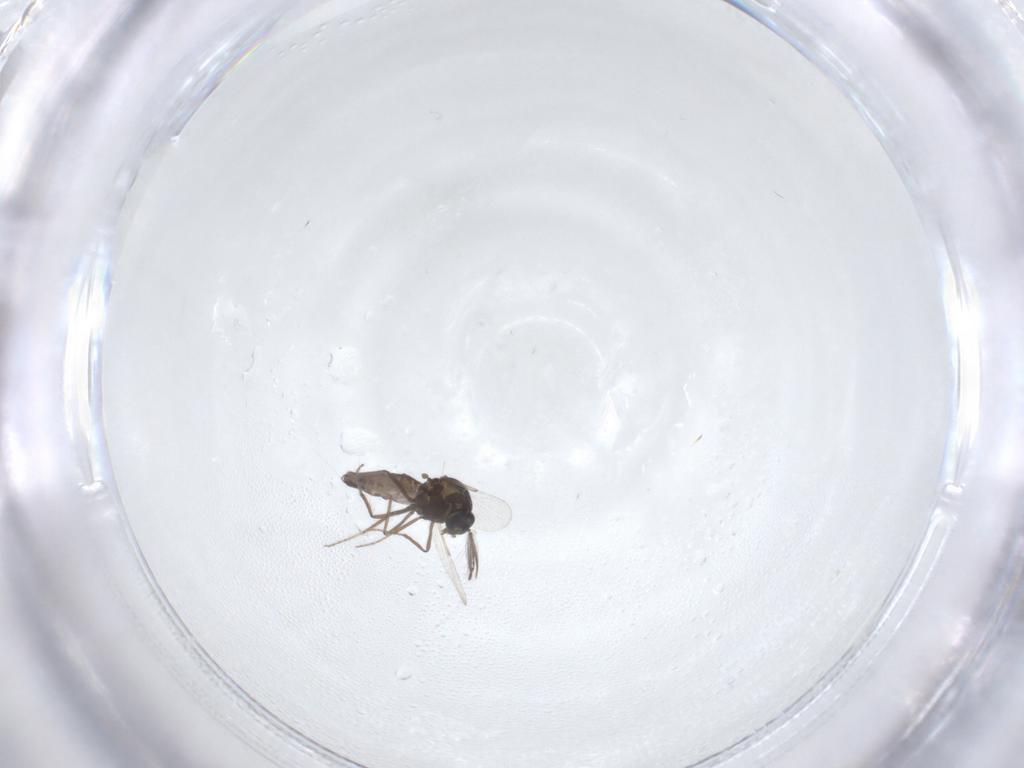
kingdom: Animalia
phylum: Arthropoda
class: Insecta
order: Diptera
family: Ceratopogonidae
